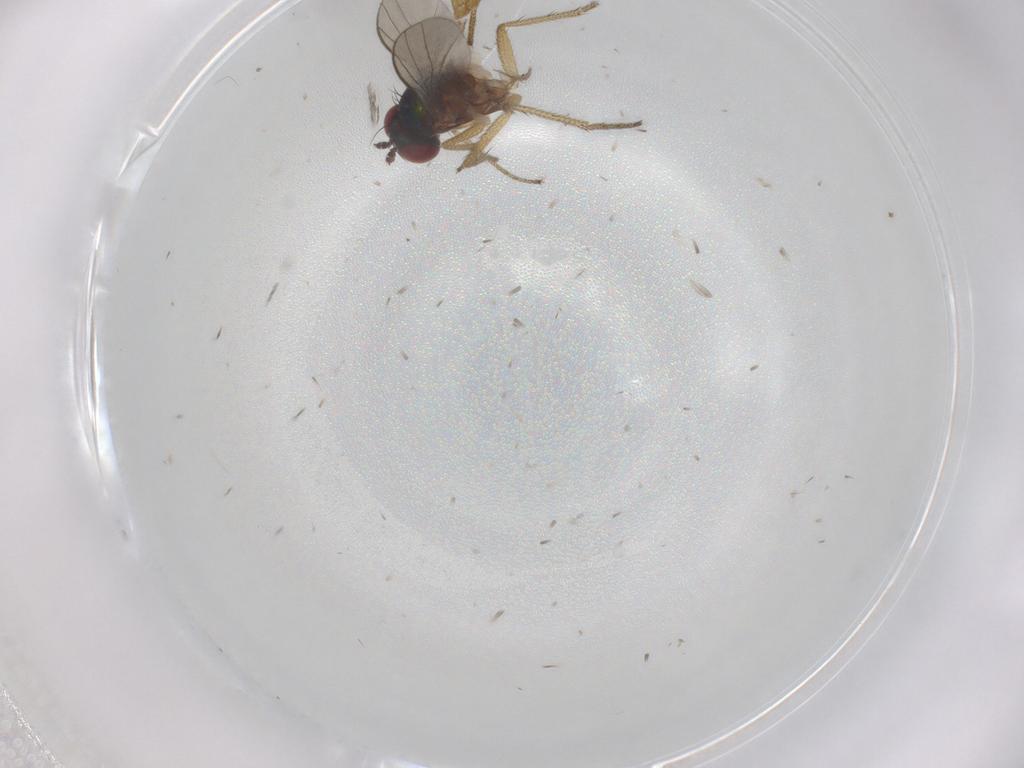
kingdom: Animalia
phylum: Arthropoda
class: Insecta
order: Diptera
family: Chironomidae
